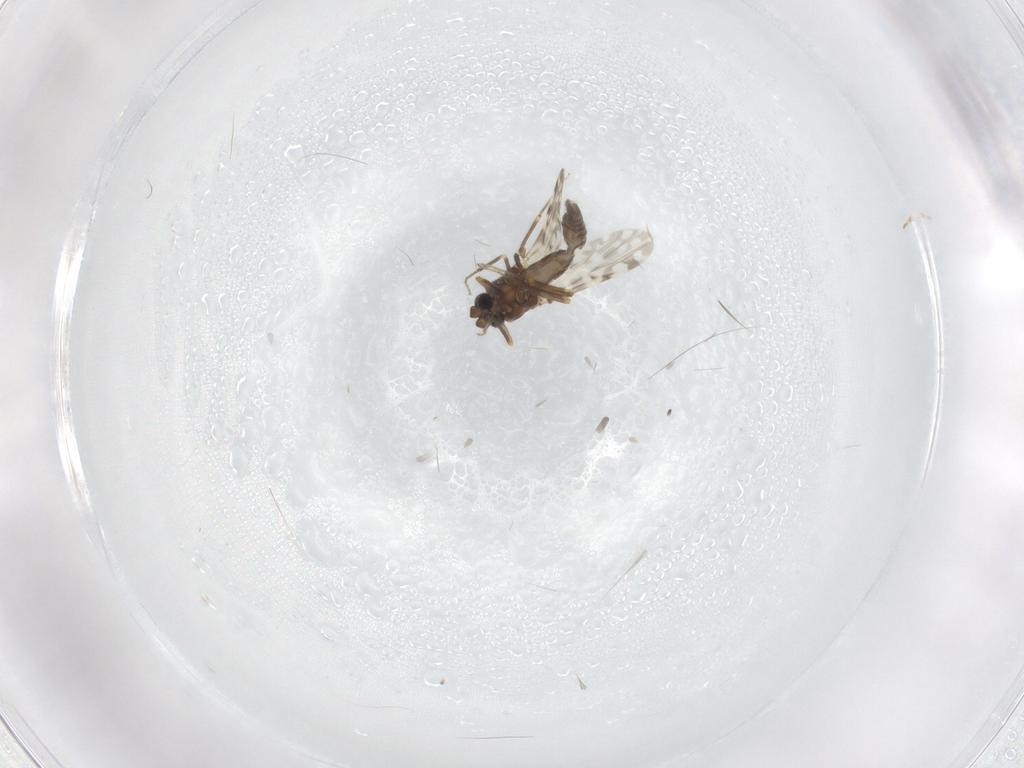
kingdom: Animalia
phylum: Arthropoda
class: Insecta
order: Diptera
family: Ceratopogonidae
